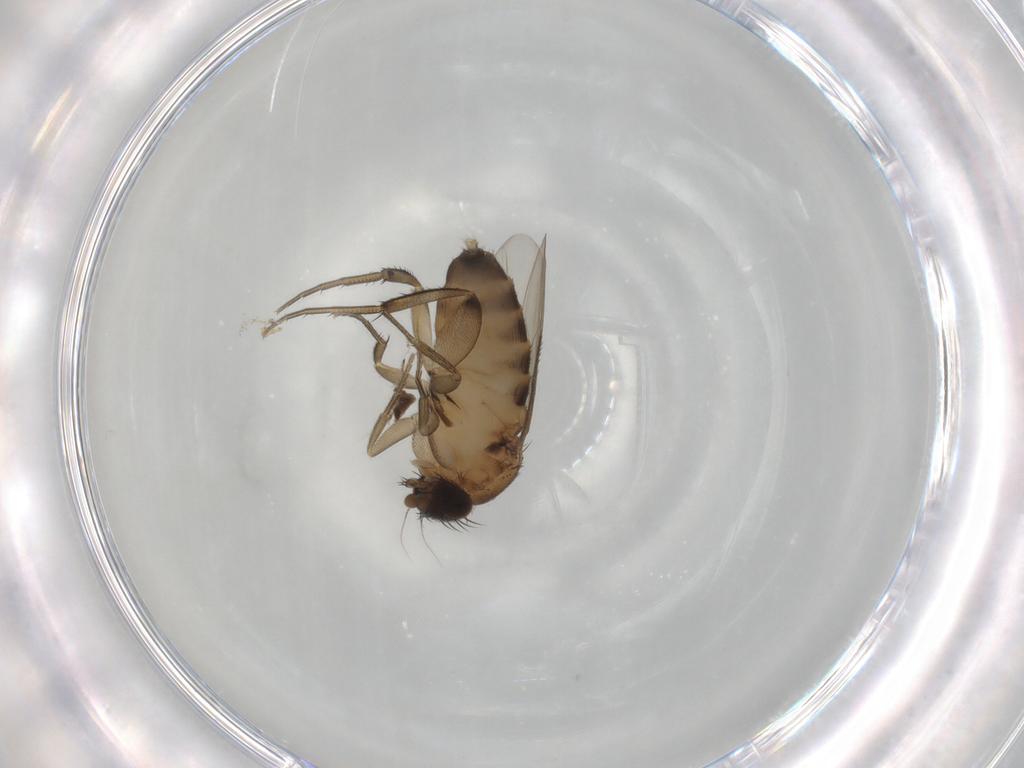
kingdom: Animalia
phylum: Arthropoda
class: Insecta
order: Diptera
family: Phoridae
